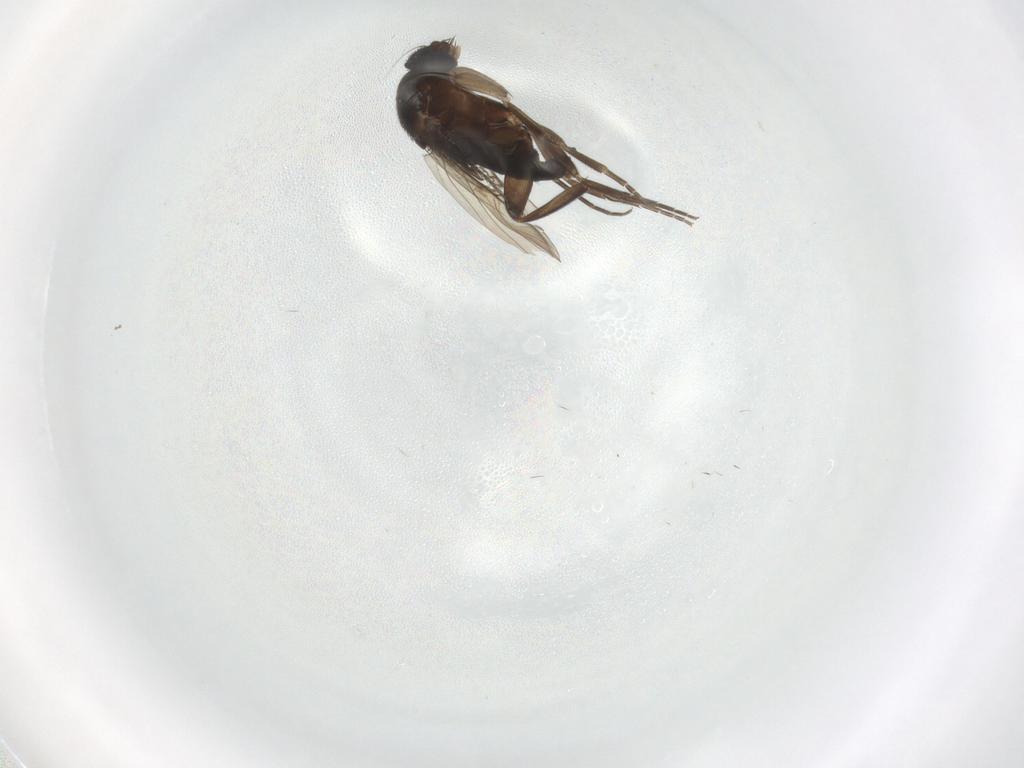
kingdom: Animalia
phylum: Arthropoda
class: Insecta
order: Diptera
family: Phoridae
